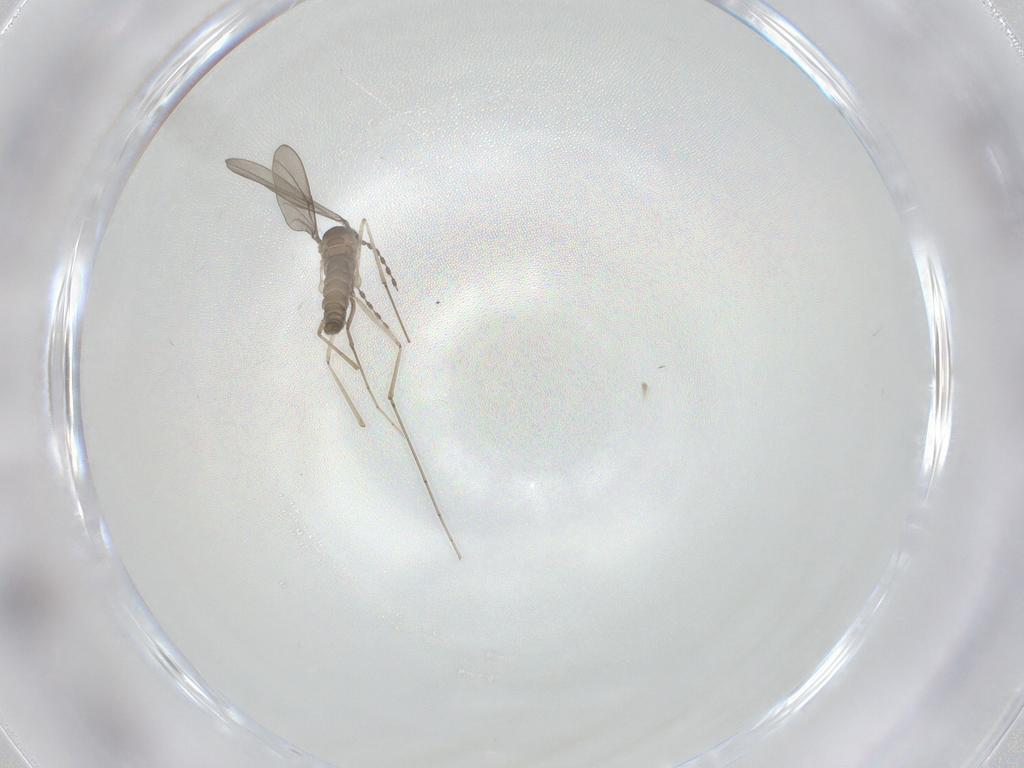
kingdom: Animalia
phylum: Arthropoda
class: Insecta
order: Diptera
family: Cecidomyiidae
